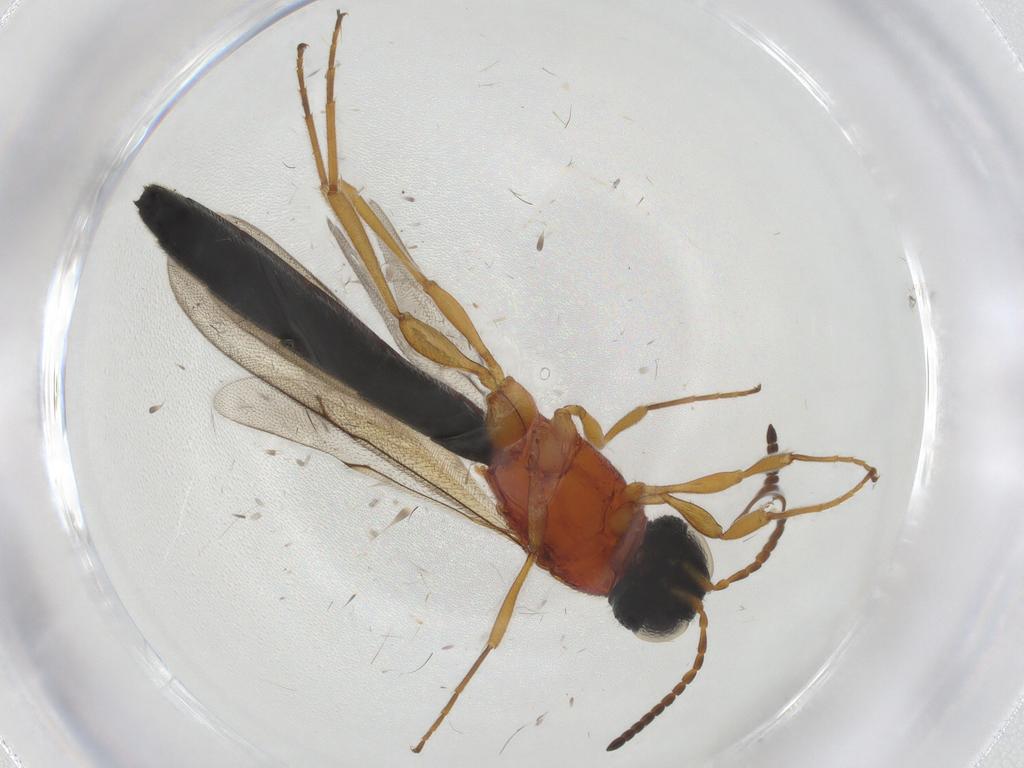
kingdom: Animalia
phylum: Arthropoda
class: Insecta
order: Hymenoptera
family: Scelionidae
